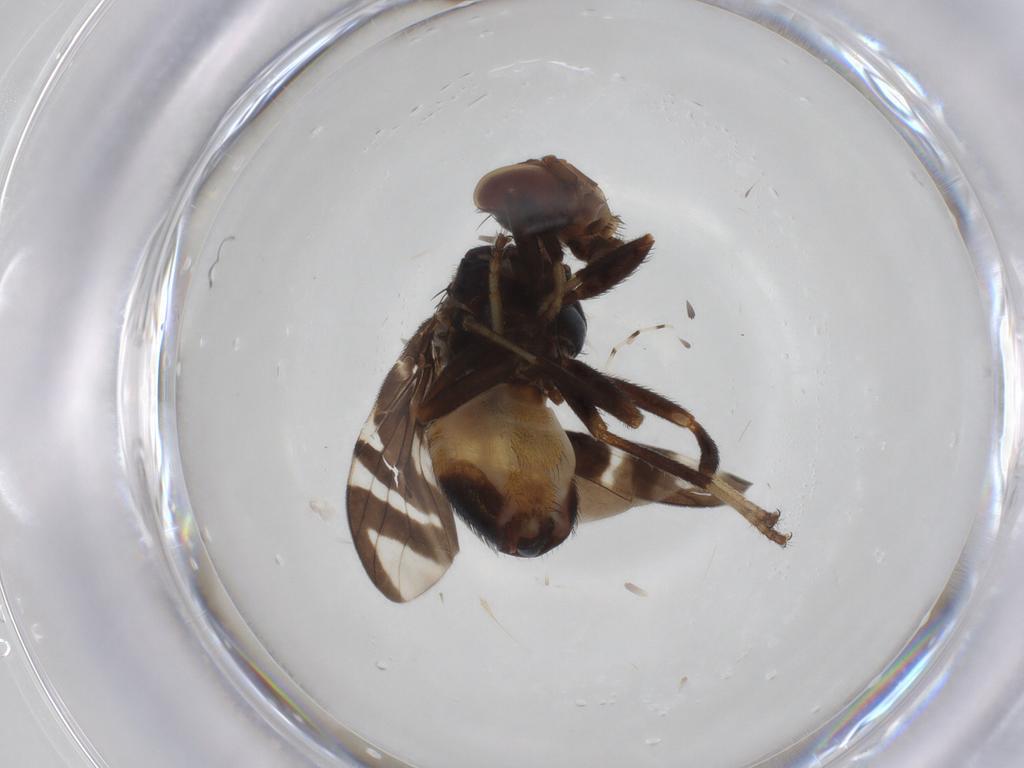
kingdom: Animalia
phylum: Arthropoda
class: Insecta
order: Diptera
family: Platystomatidae
